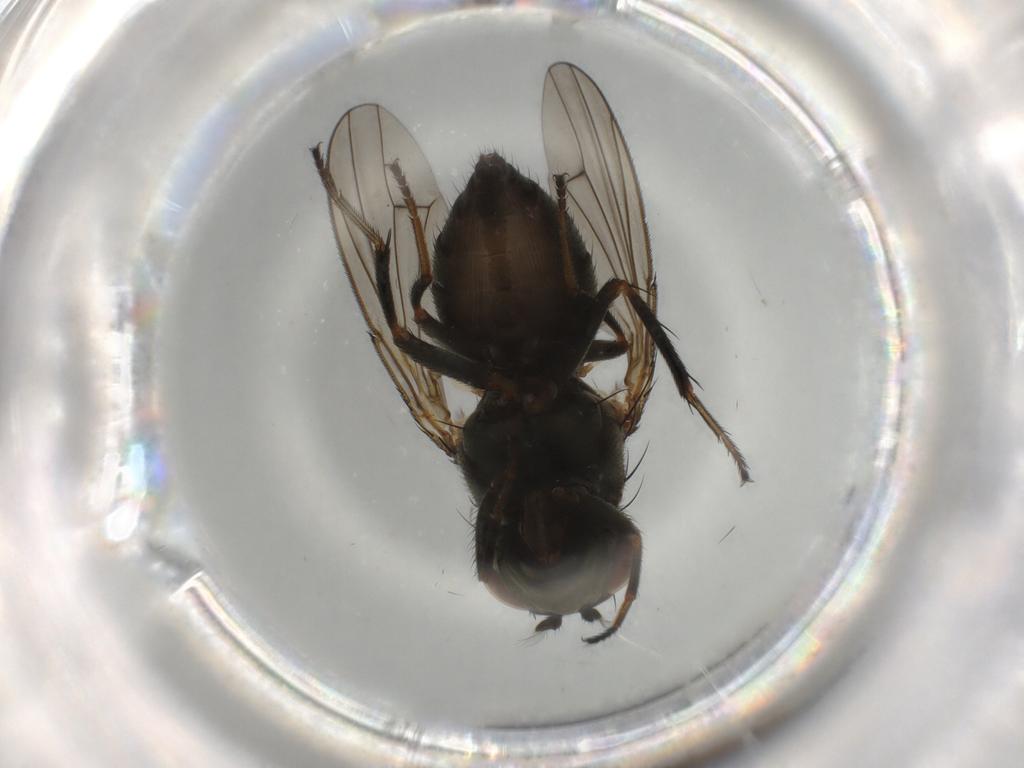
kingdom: Animalia
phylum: Arthropoda
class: Insecta
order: Diptera
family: Ephydridae
